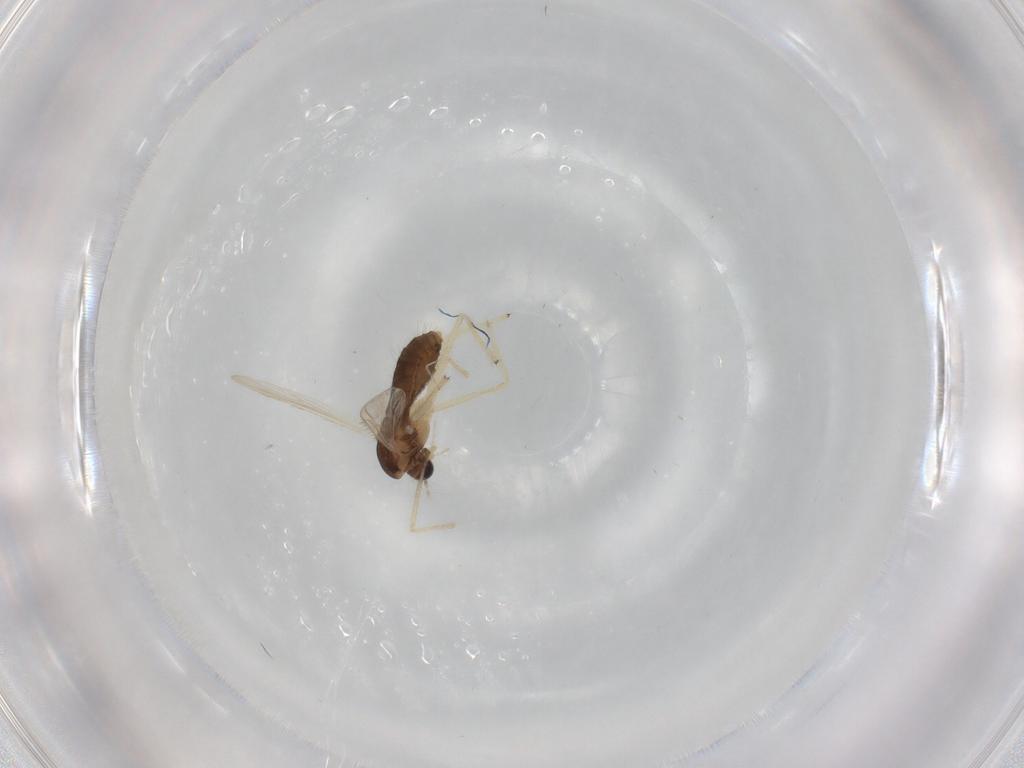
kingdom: Animalia
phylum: Arthropoda
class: Insecta
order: Diptera
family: Chironomidae
